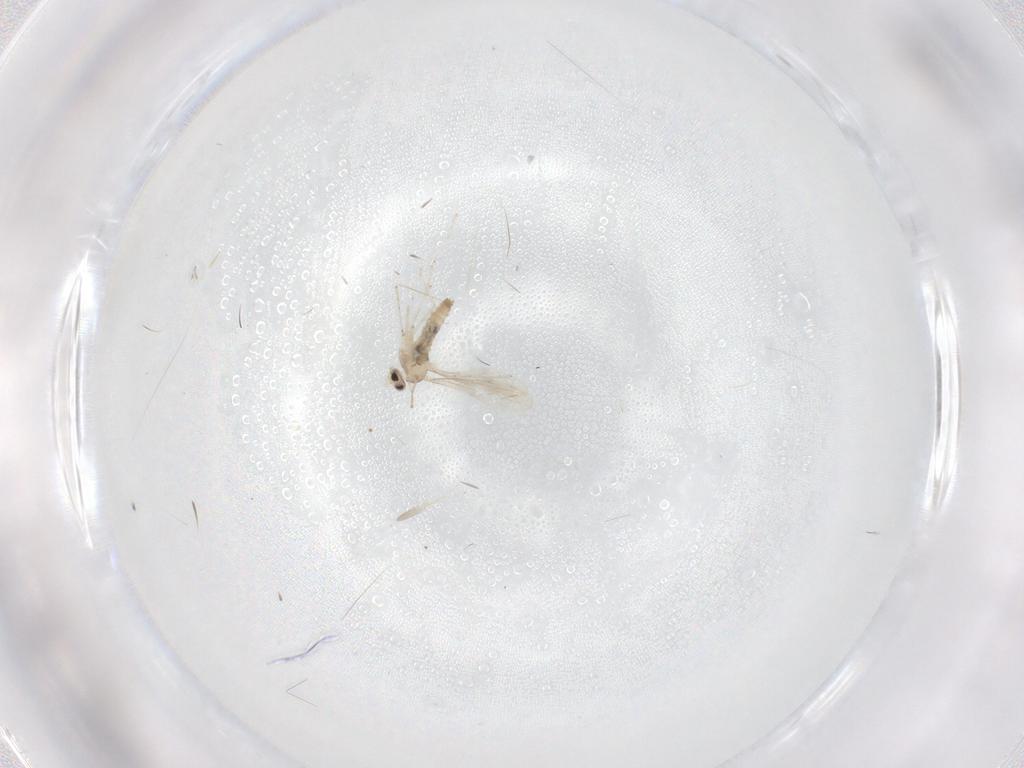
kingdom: Animalia
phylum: Arthropoda
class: Insecta
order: Diptera
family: Cecidomyiidae
